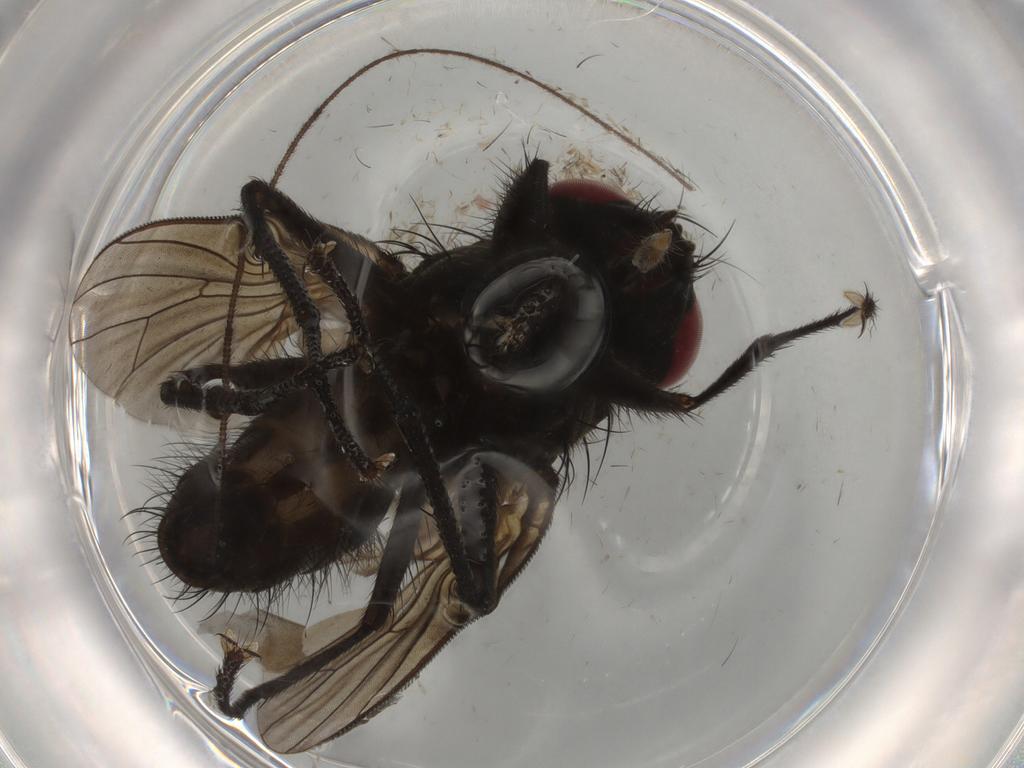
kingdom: Animalia
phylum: Arthropoda
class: Insecta
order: Diptera
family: Muscidae
